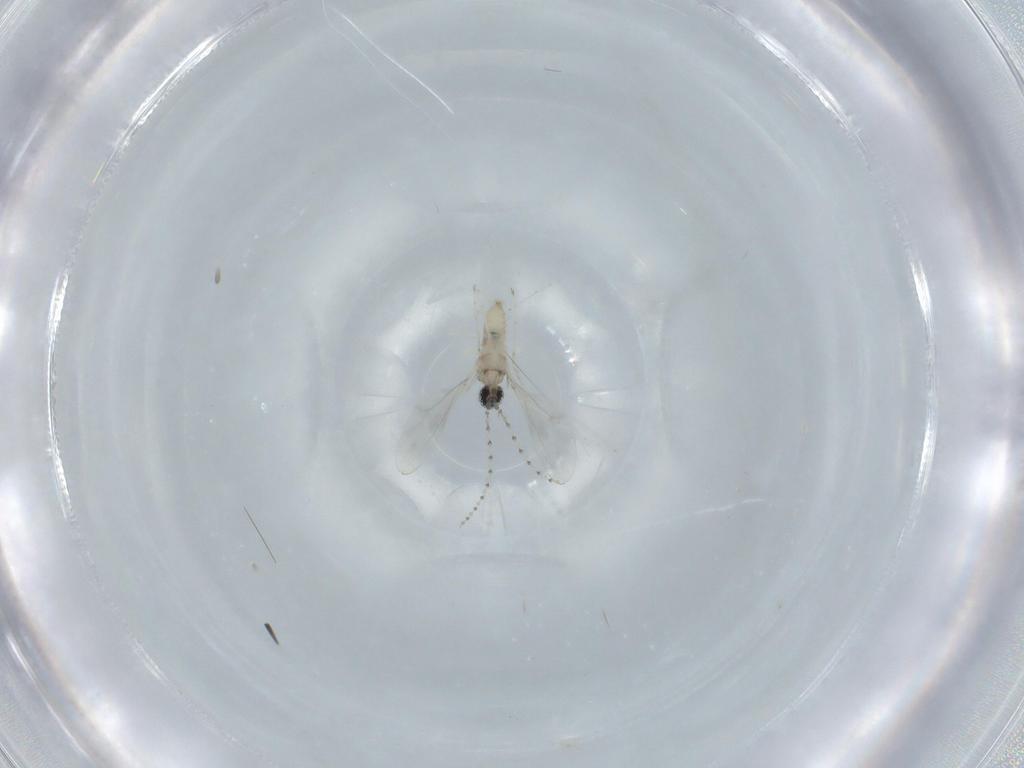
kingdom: Animalia
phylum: Arthropoda
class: Insecta
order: Diptera
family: Cecidomyiidae
